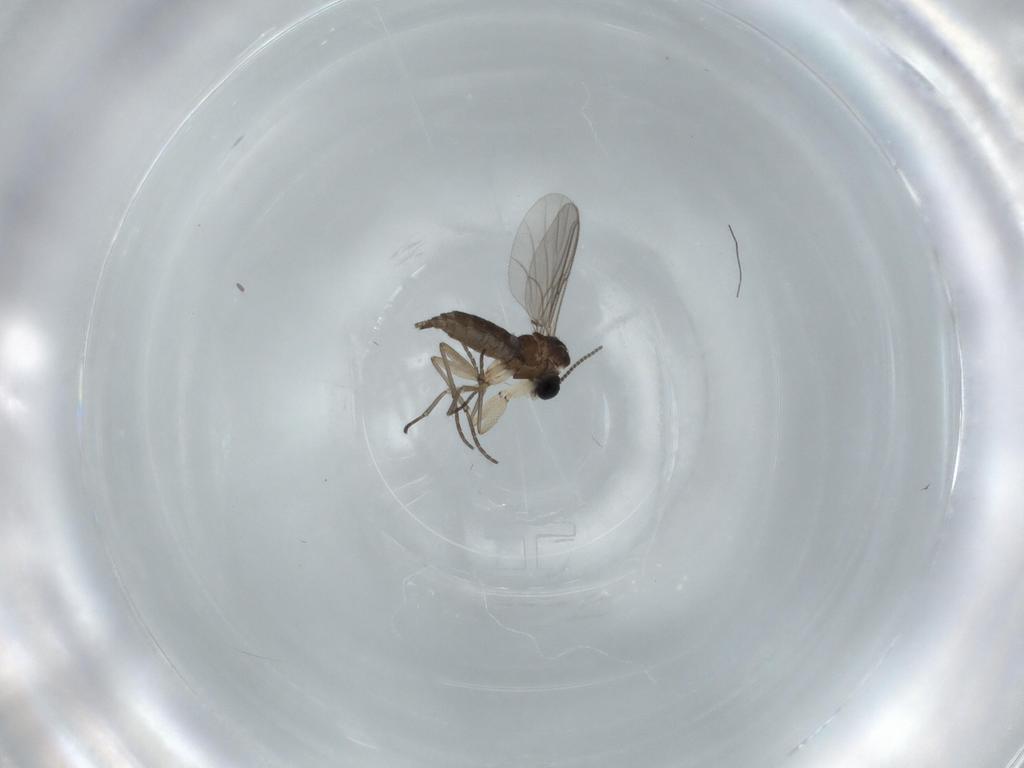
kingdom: Animalia
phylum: Arthropoda
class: Insecta
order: Diptera
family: Sciaridae
